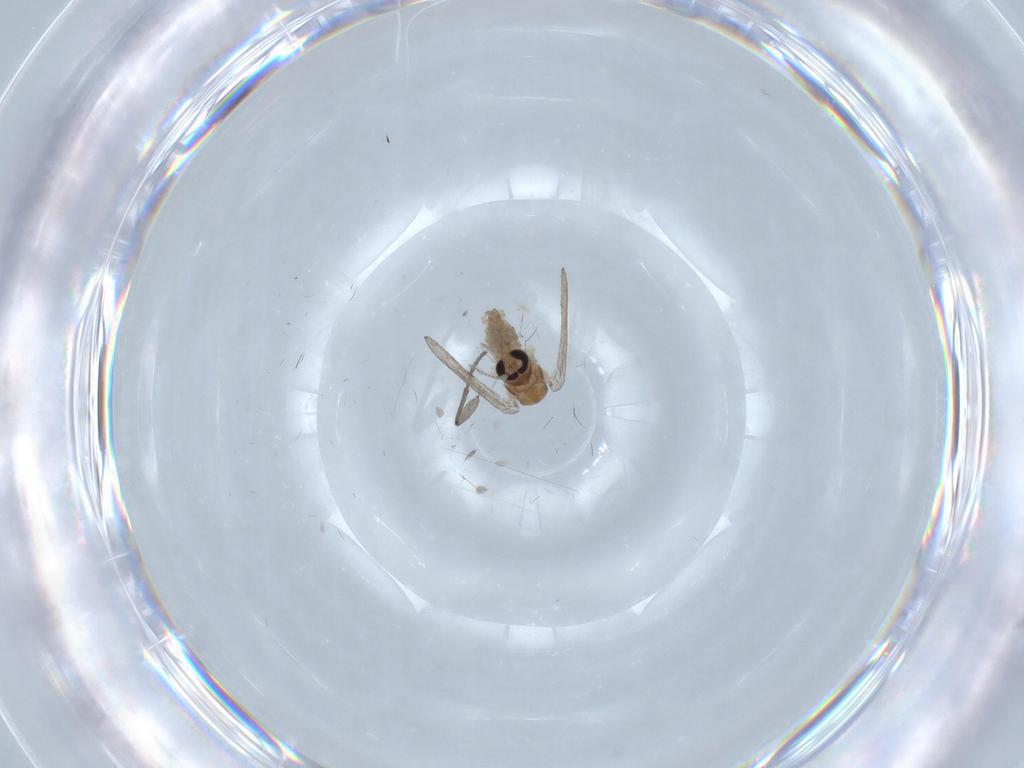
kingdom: Animalia
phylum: Arthropoda
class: Insecta
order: Diptera
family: Psychodidae
